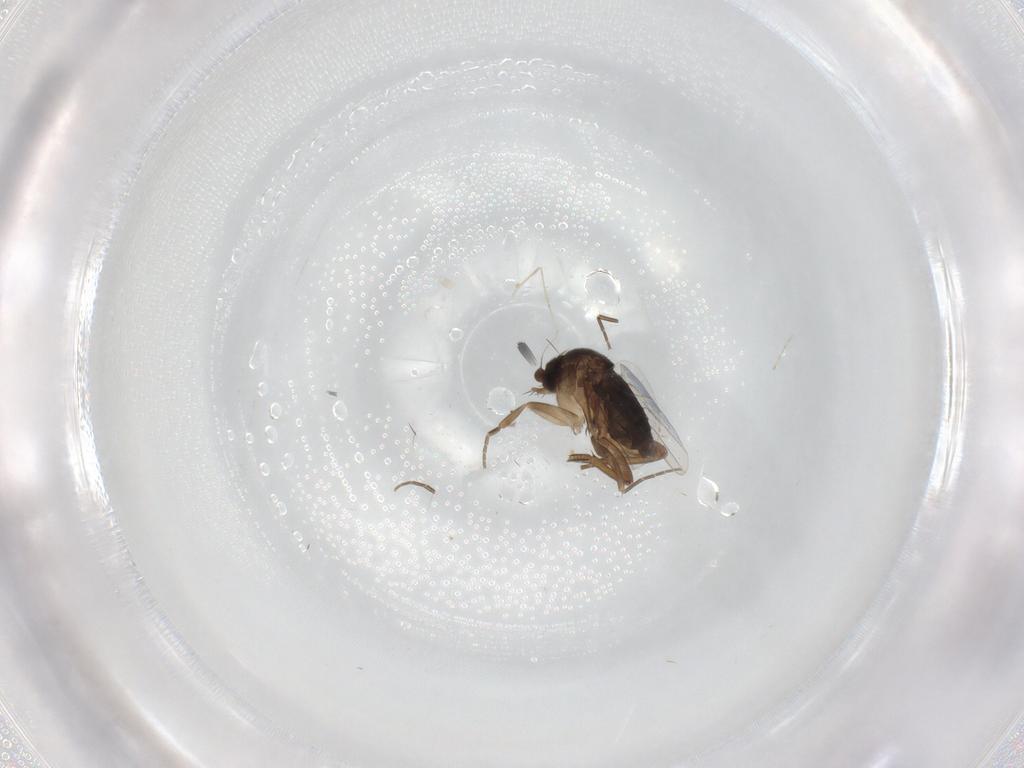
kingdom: Animalia
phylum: Arthropoda
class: Insecta
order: Diptera
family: Cecidomyiidae
